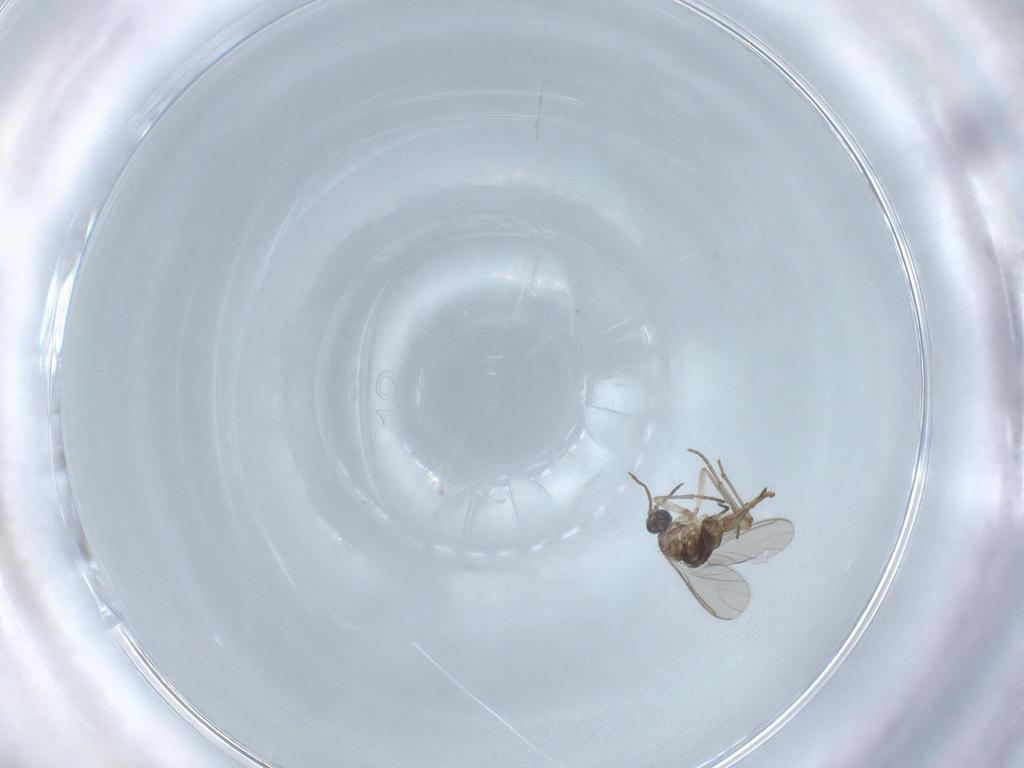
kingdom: Animalia
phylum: Arthropoda
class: Insecta
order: Diptera
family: Sciaridae
